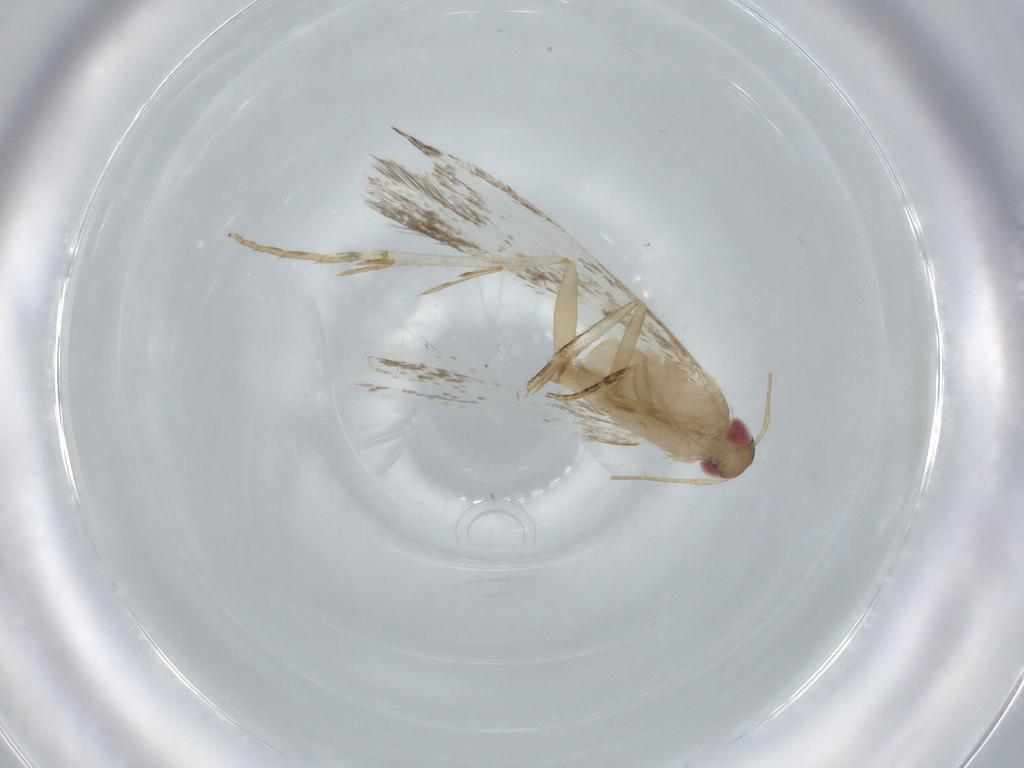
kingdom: Animalia
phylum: Arthropoda
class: Insecta
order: Lepidoptera
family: Gelechiidae
